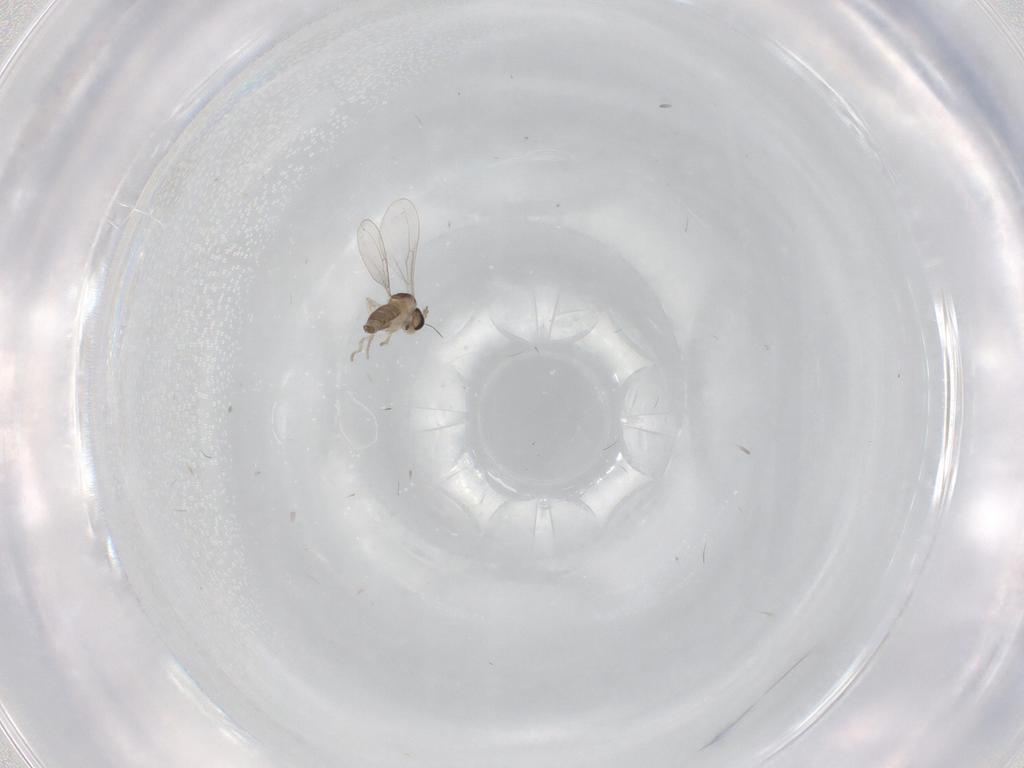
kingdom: Animalia
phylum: Arthropoda
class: Insecta
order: Diptera
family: Cecidomyiidae
